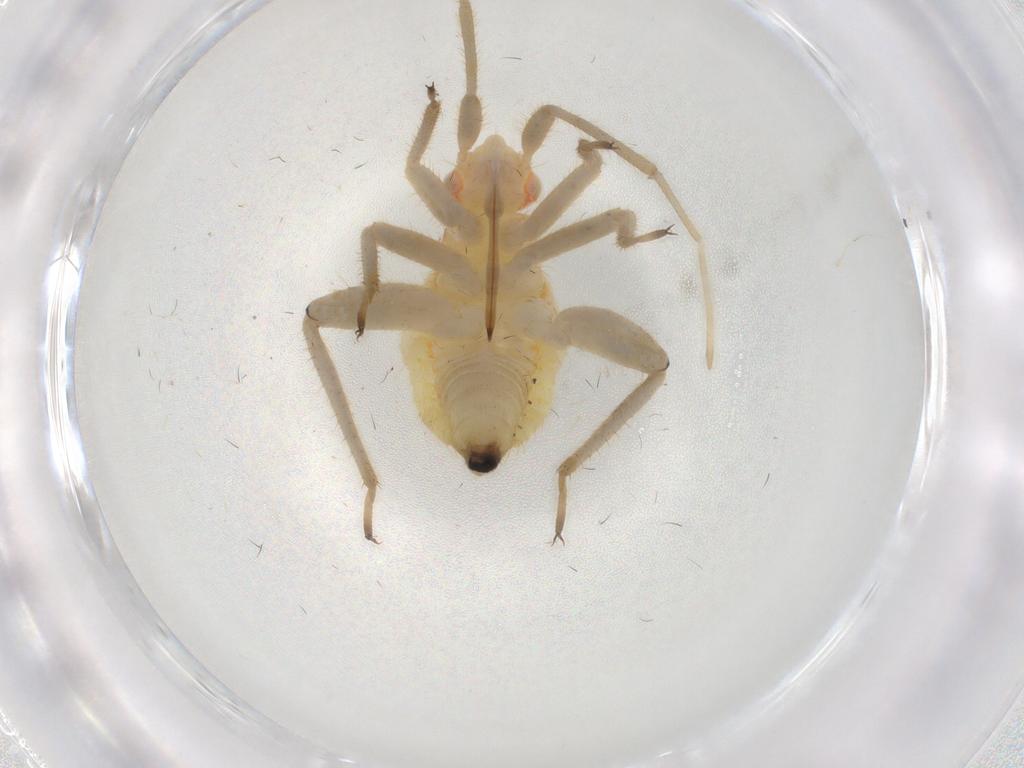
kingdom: Animalia
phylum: Arthropoda
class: Insecta
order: Hemiptera
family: Miridae
